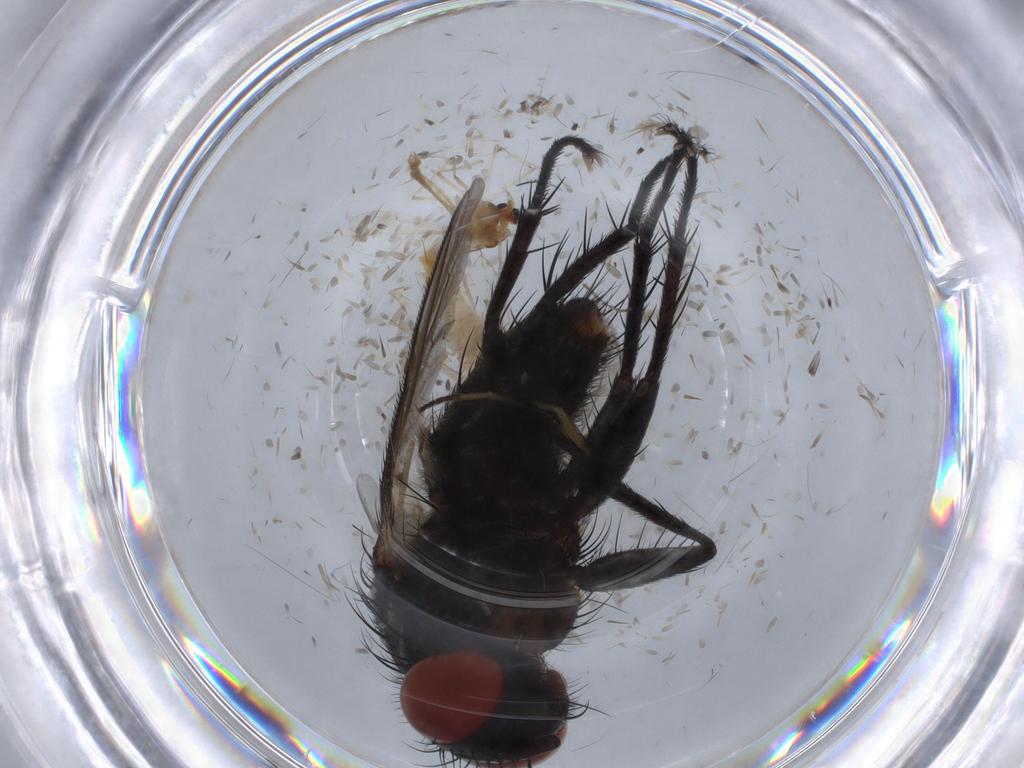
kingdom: Animalia
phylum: Arthropoda
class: Insecta
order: Diptera
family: Sarcophagidae
